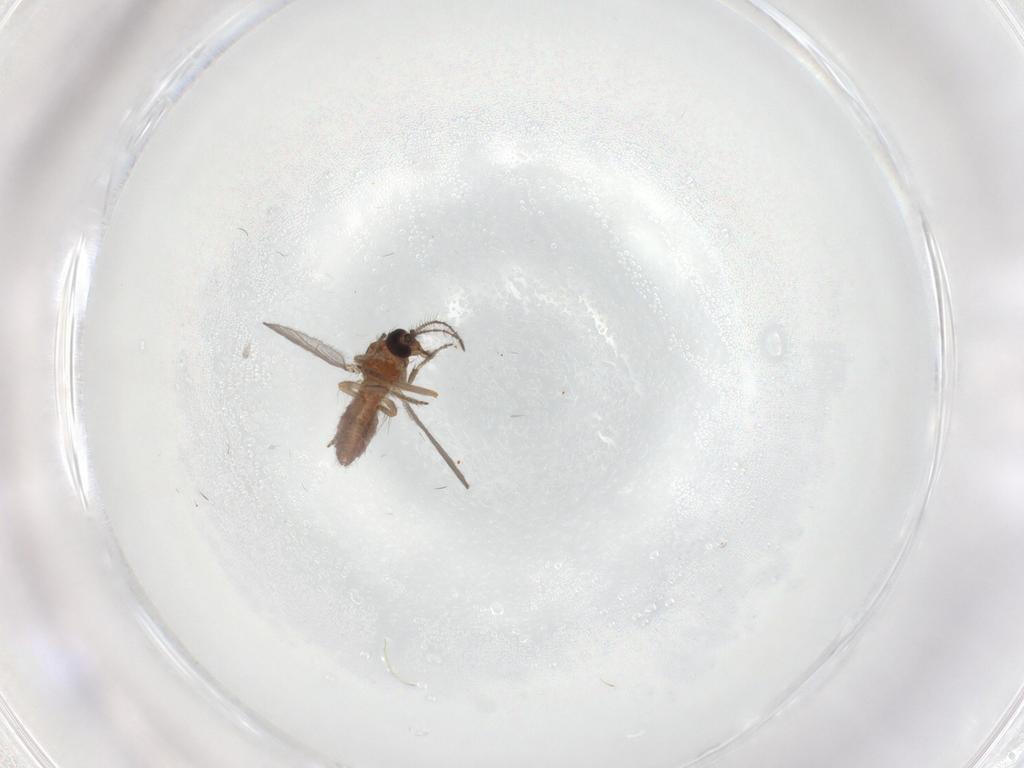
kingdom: Animalia
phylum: Arthropoda
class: Insecta
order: Diptera
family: Ceratopogonidae
